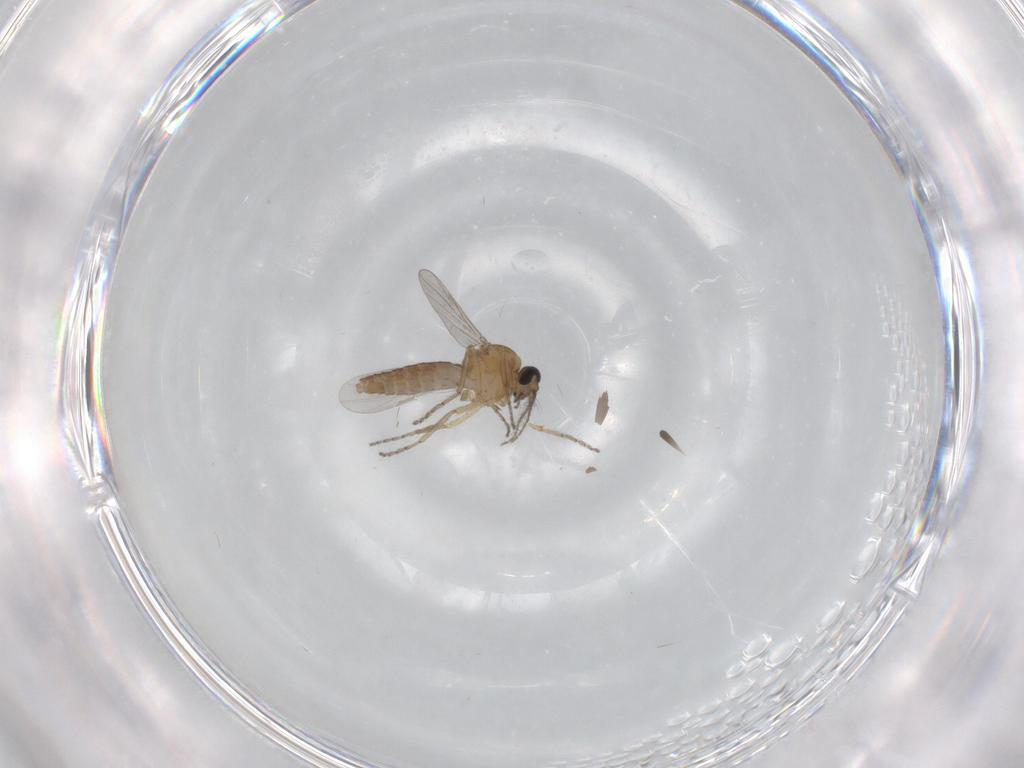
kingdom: Animalia
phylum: Arthropoda
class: Insecta
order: Diptera
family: Ceratopogonidae
